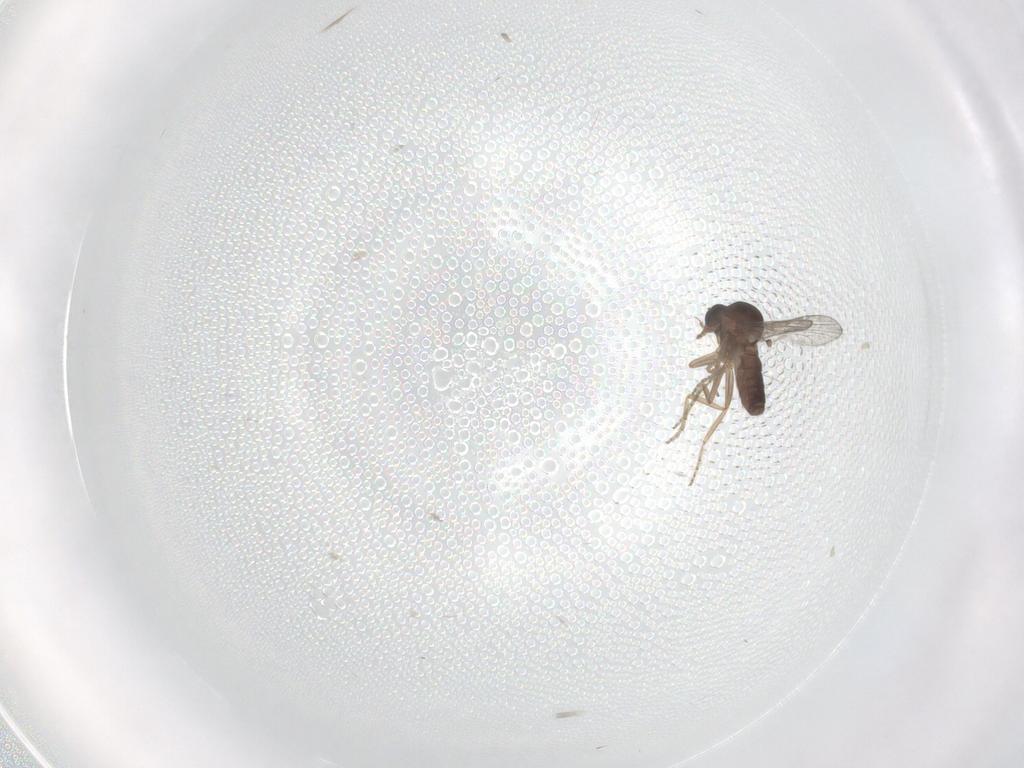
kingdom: Animalia
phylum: Arthropoda
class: Insecta
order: Diptera
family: Ceratopogonidae
